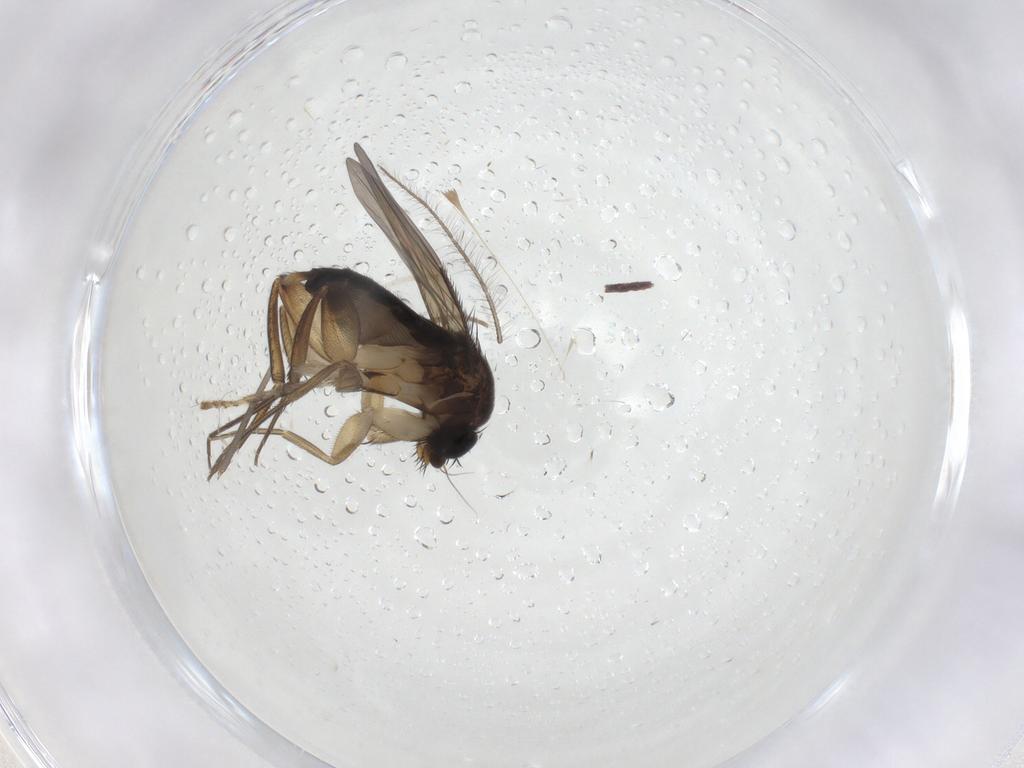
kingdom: Animalia
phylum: Arthropoda
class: Insecta
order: Diptera
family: Phoridae
